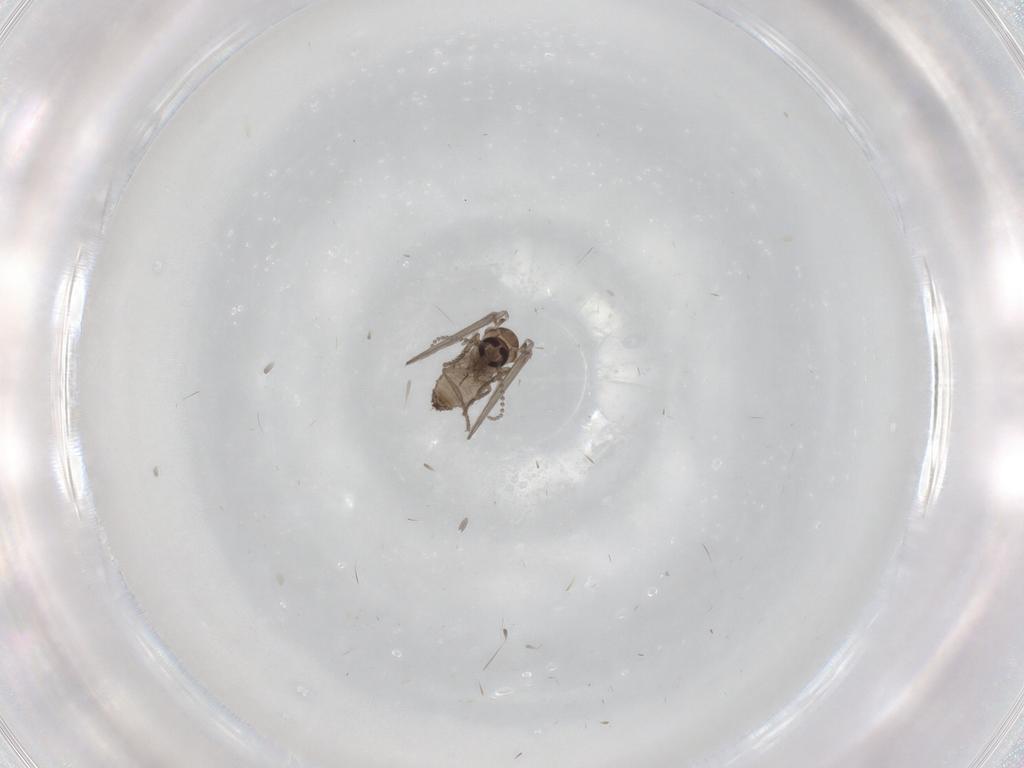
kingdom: Animalia
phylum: Arthropoda
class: Insecta
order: Diptera
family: Psychodidae
